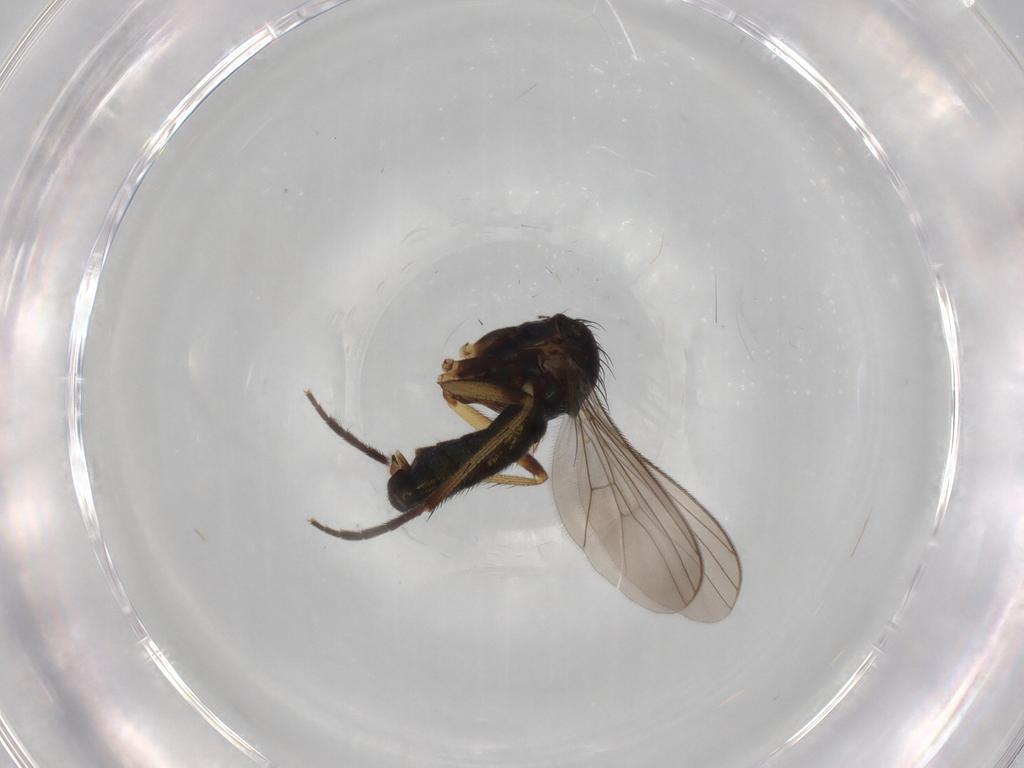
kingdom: Animalia
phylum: Arthropoda
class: Insecta
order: Diptera
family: Dolichopodidae
